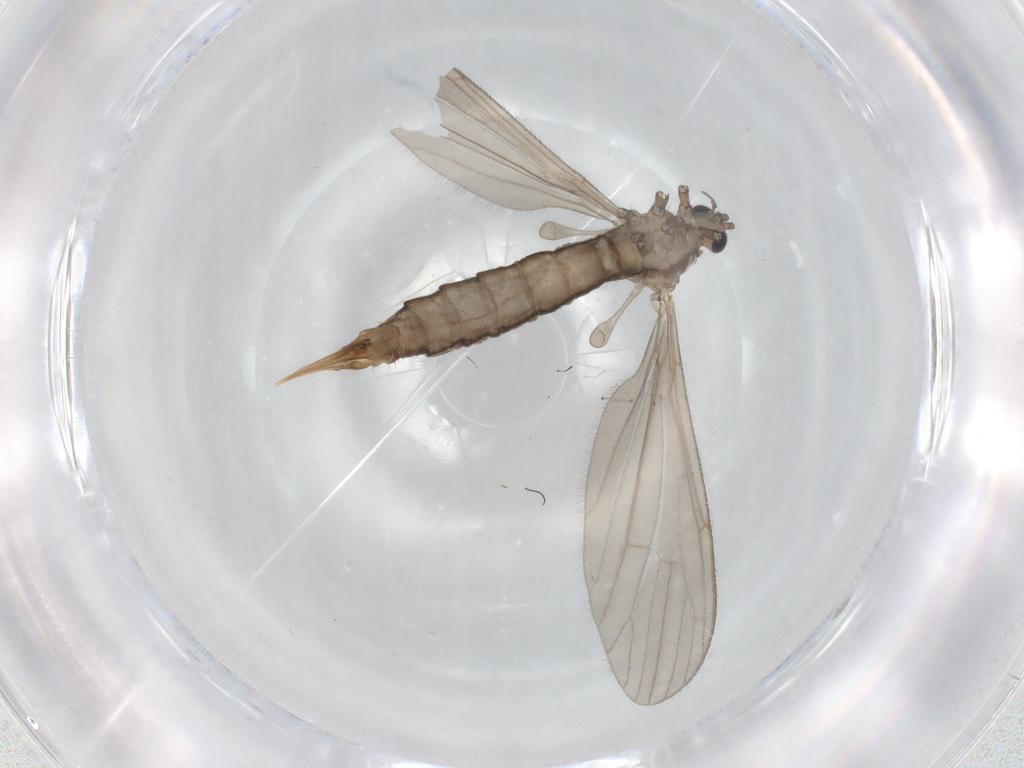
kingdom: Animalia
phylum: Arthropoda
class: Insecta
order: Diptera
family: Limoniidae
